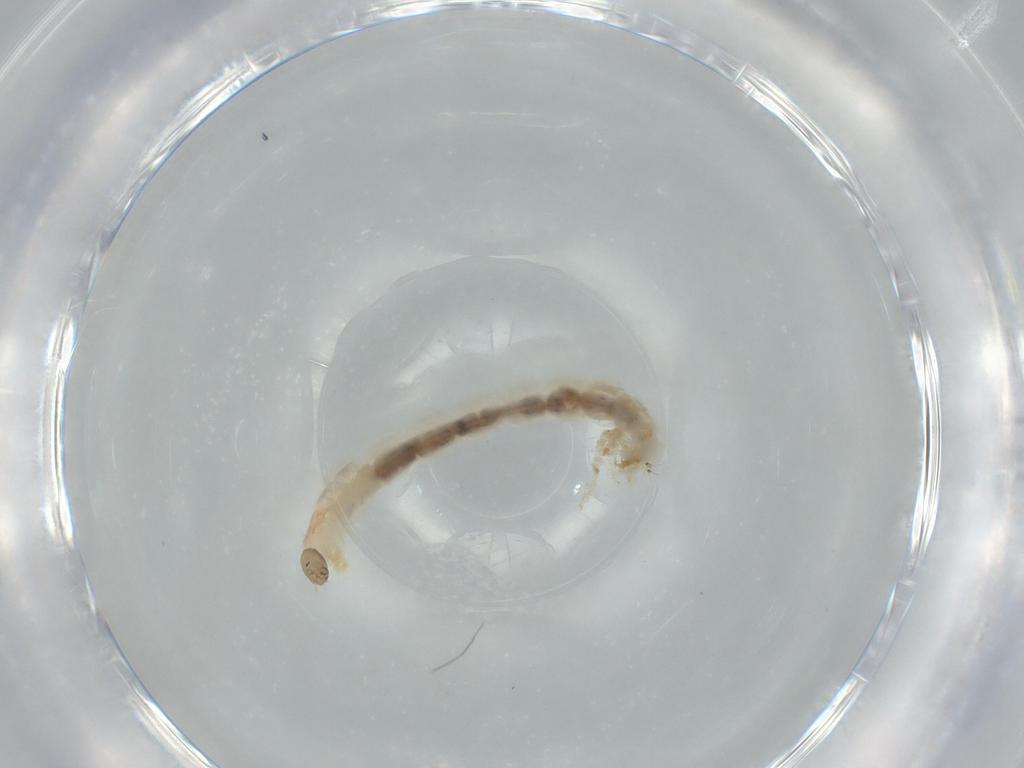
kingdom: Animalia
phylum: Arthropoda
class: Insecta
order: Diptera
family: Chironomidae
